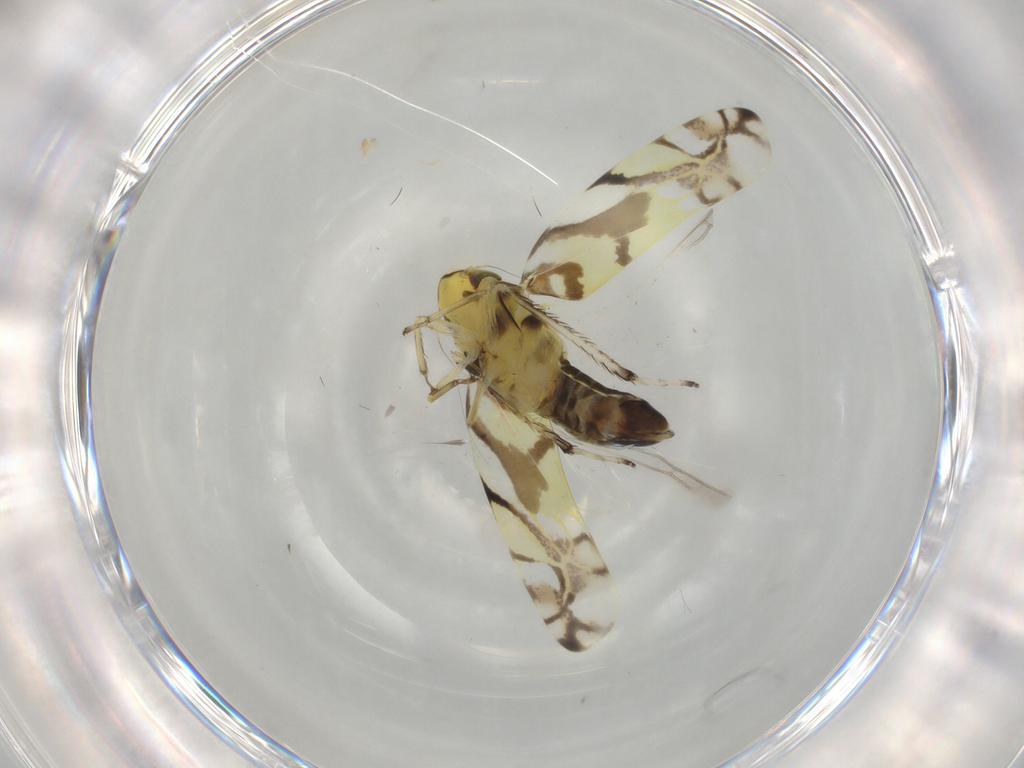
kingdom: Animalia
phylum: Arthropoda
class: Insecta
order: Hemiptera
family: Cicadellidae
